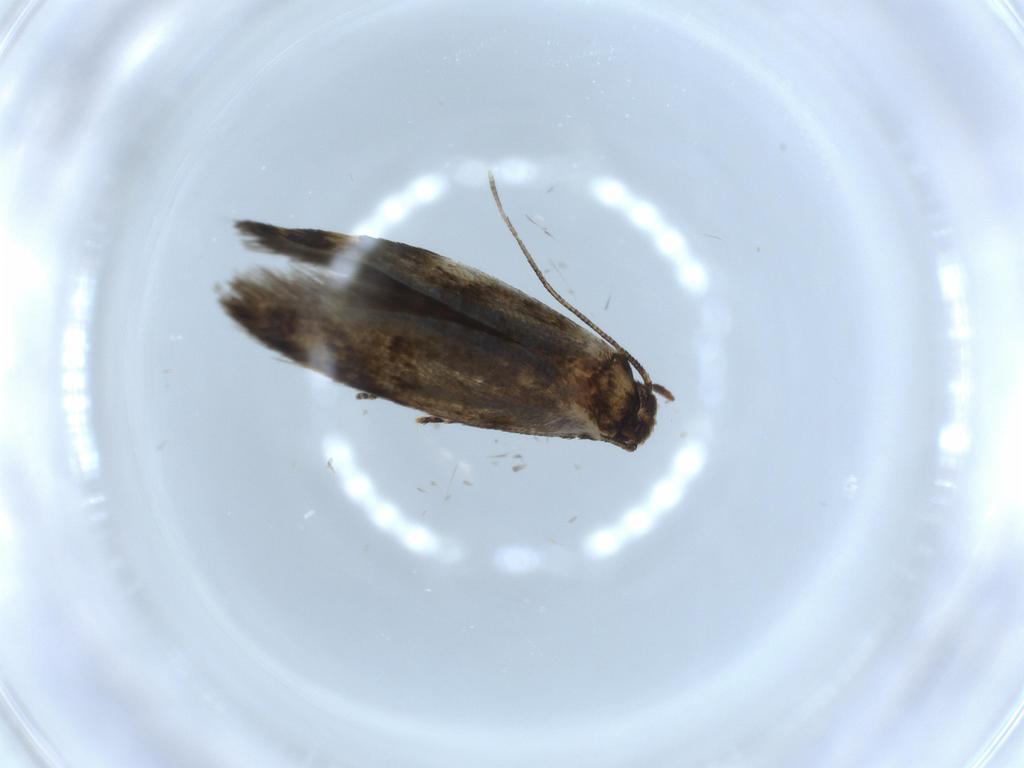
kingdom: Animalia
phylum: Arthropoda
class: Insecta
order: Lepidoptera
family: Tineidae
